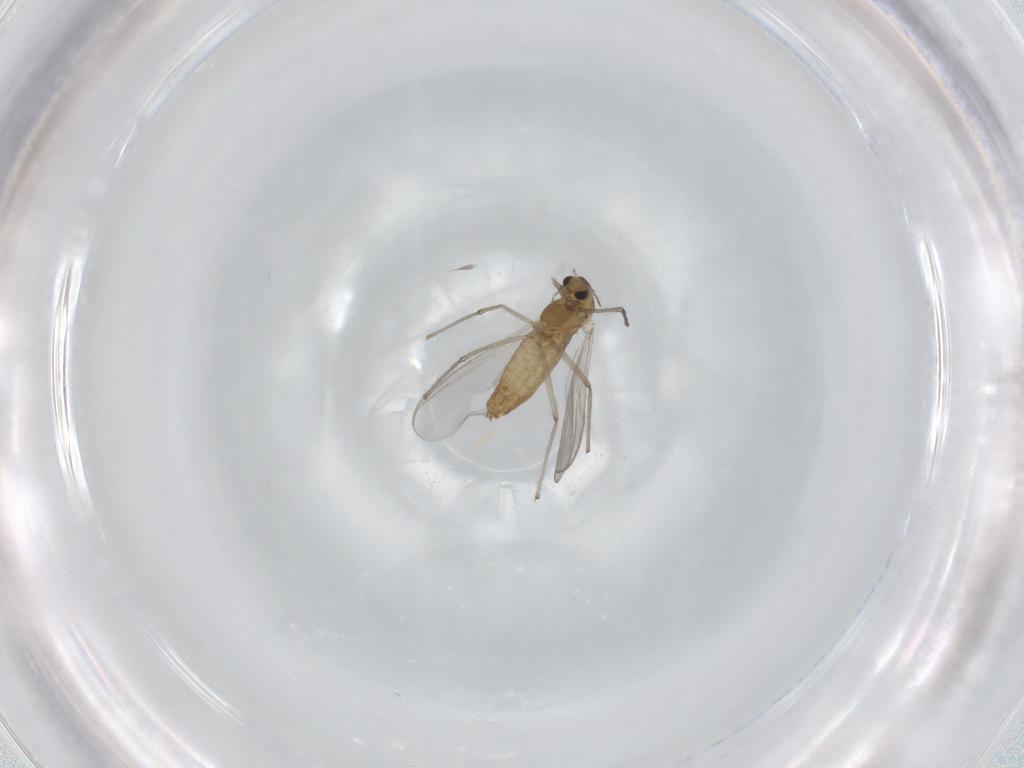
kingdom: Animalia
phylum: Arthropoda
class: Insecta
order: Diptera
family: Chironomidae
